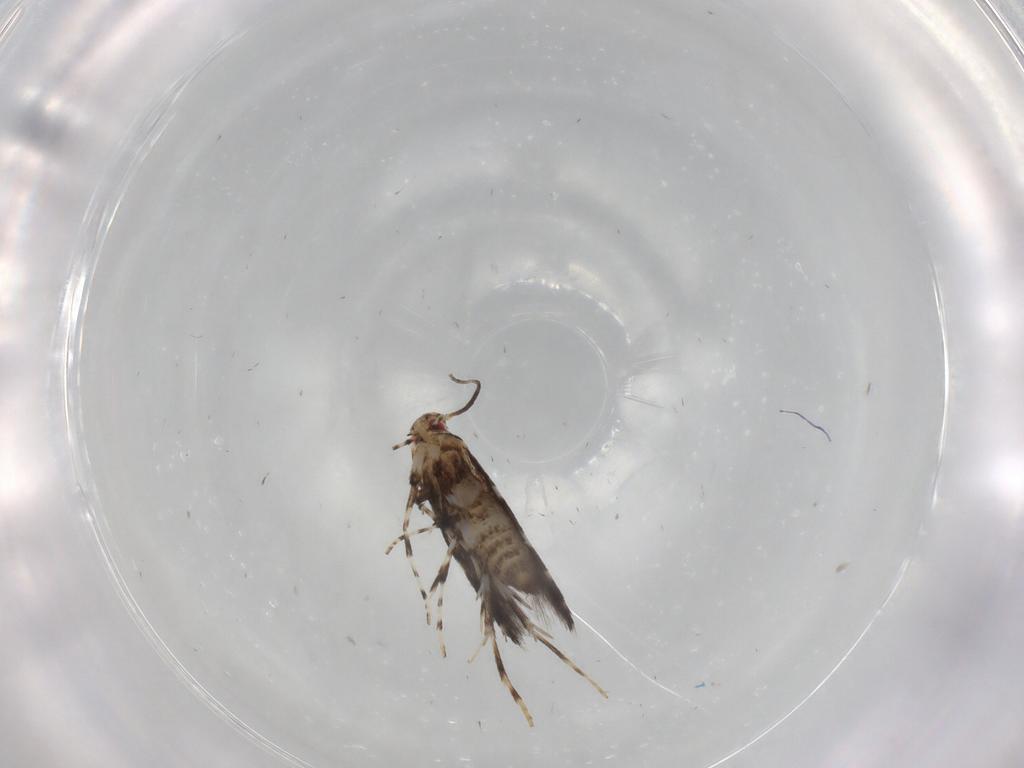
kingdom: Animalia
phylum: Arthropoda
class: Insecta
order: Lepidoptera
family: Gracillariidae
